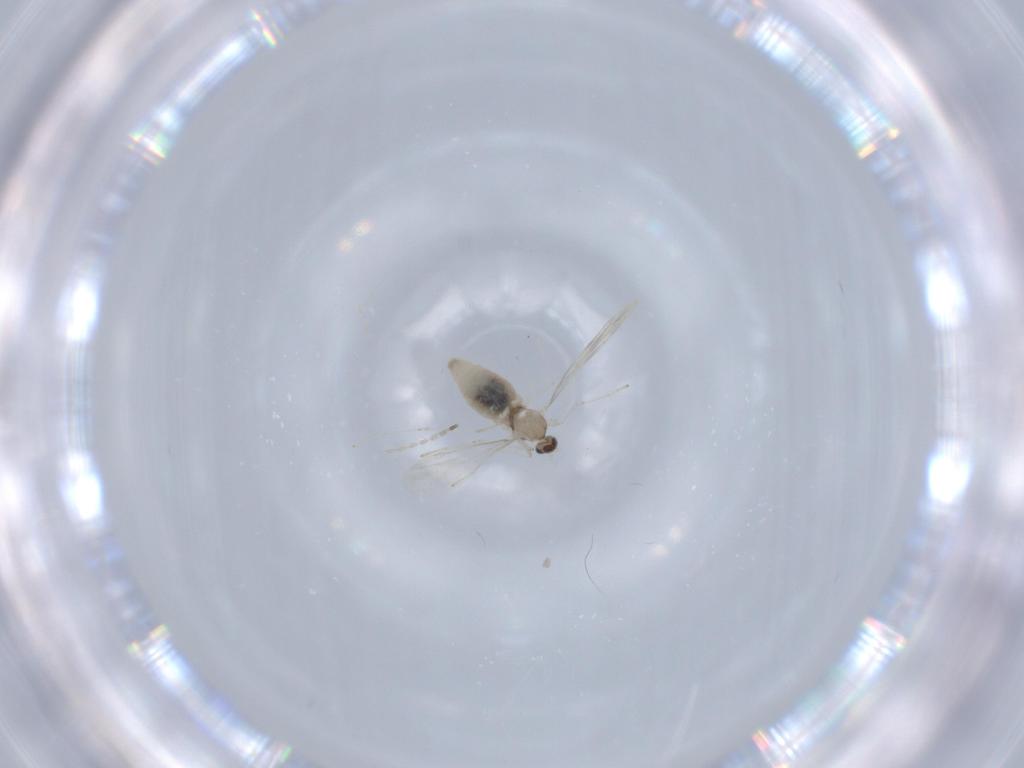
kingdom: Animalia
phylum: Arthropoda
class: Insecta
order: Diptera
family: Cecidomyiidae
